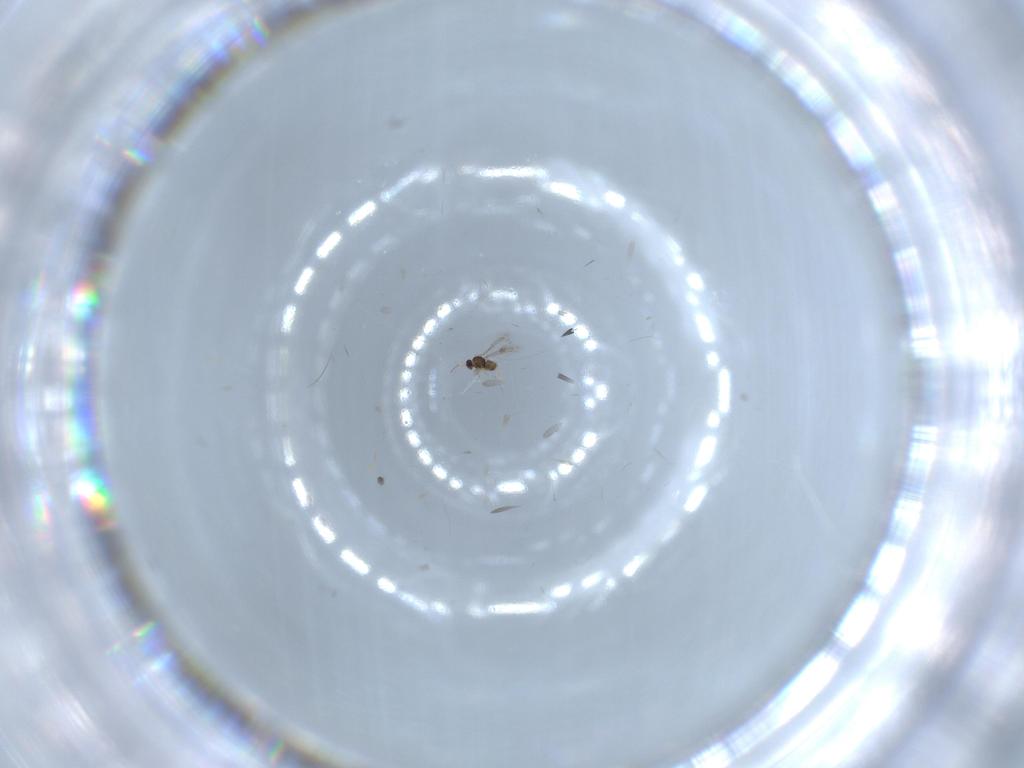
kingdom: Animalia
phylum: Arthropoda
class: Insecta
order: Hymenoptera
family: Figitidae
